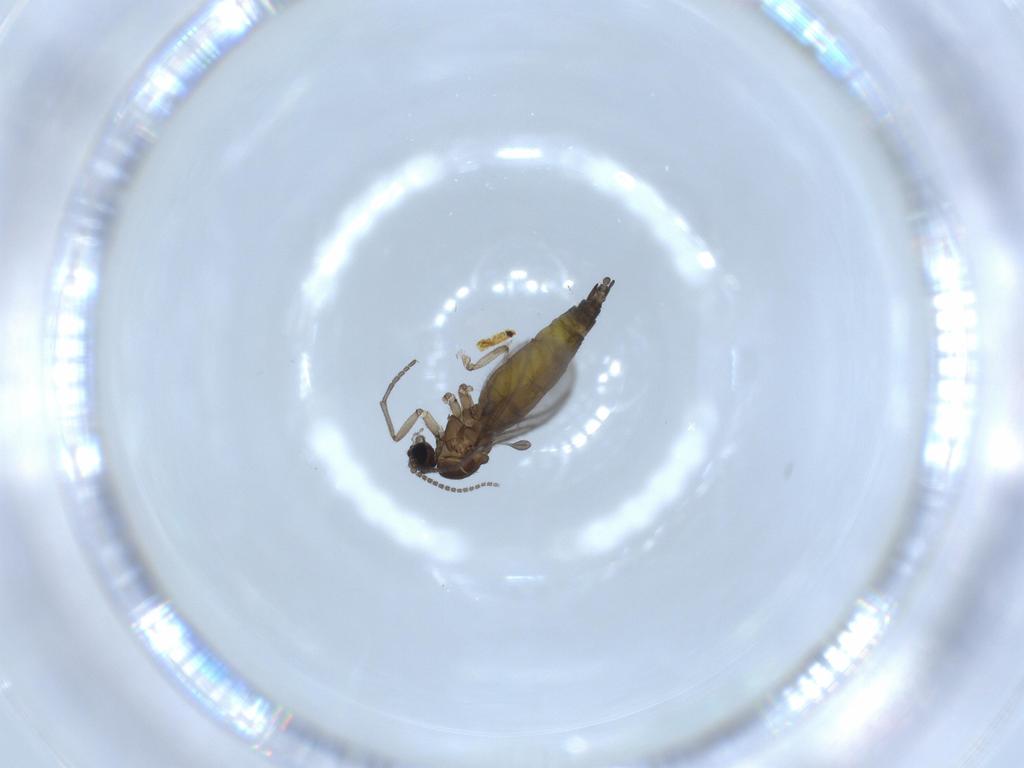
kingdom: Animalia
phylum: Arthropoda
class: Insecta
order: Diptera
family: Sciaridae
